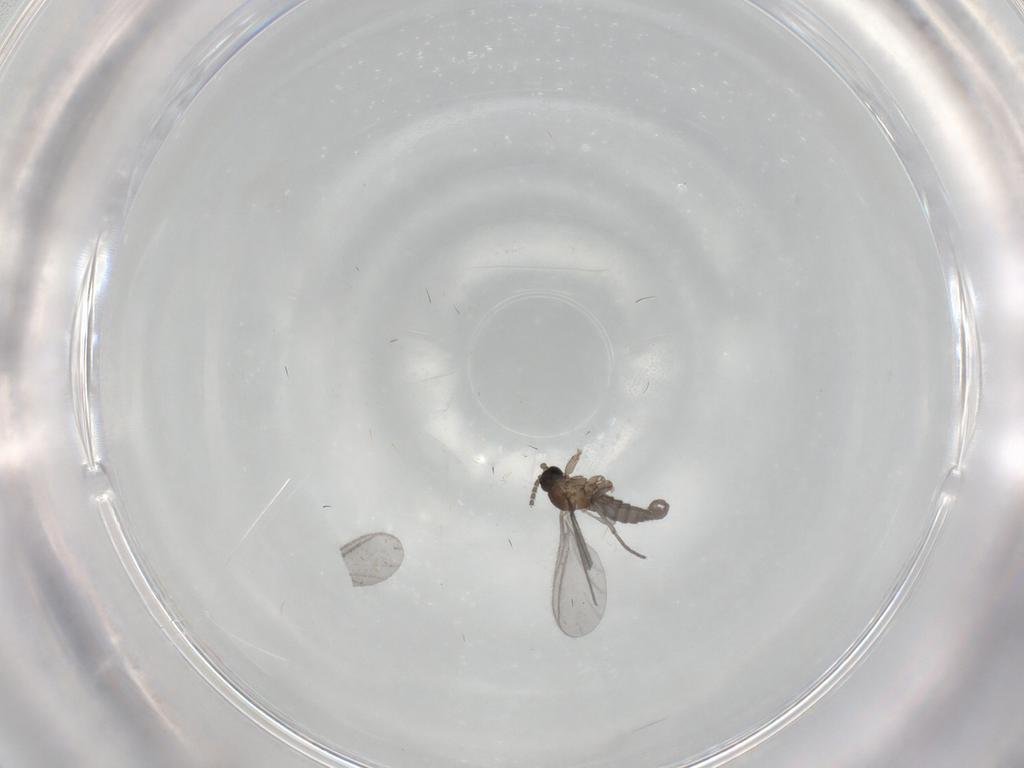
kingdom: Animalia
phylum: Arthropoda
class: Insecta
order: Diptera
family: Sciaridae
